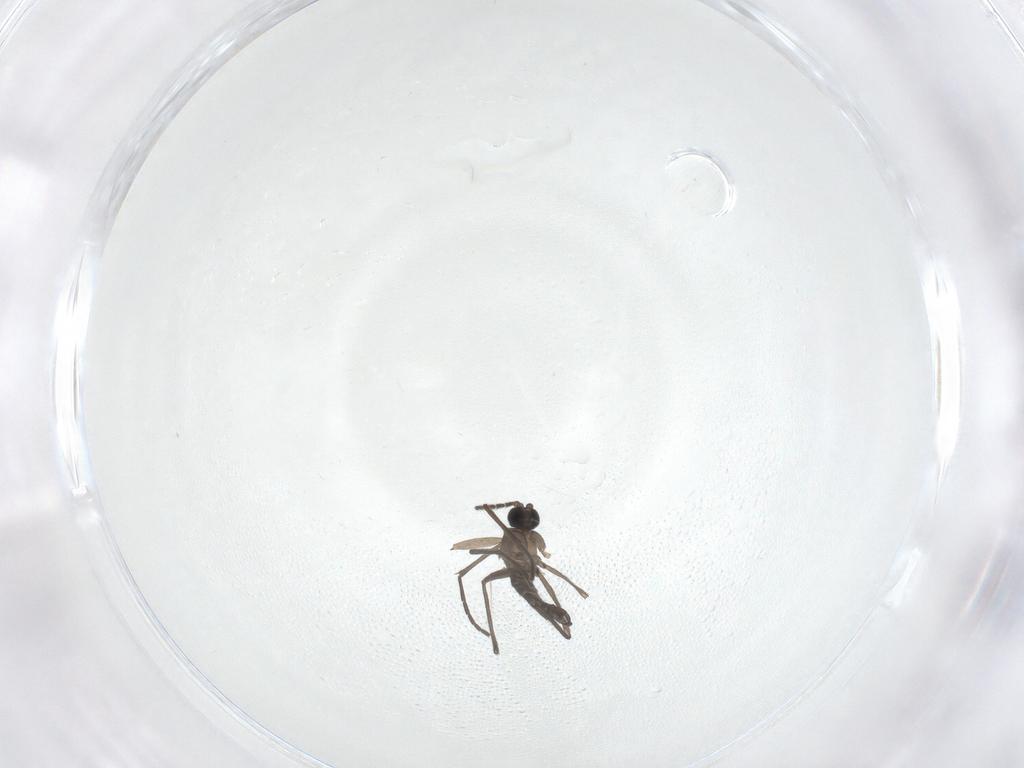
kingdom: Animalia
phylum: Arthropoda
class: Insecta
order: Diptera
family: Sciaridae
